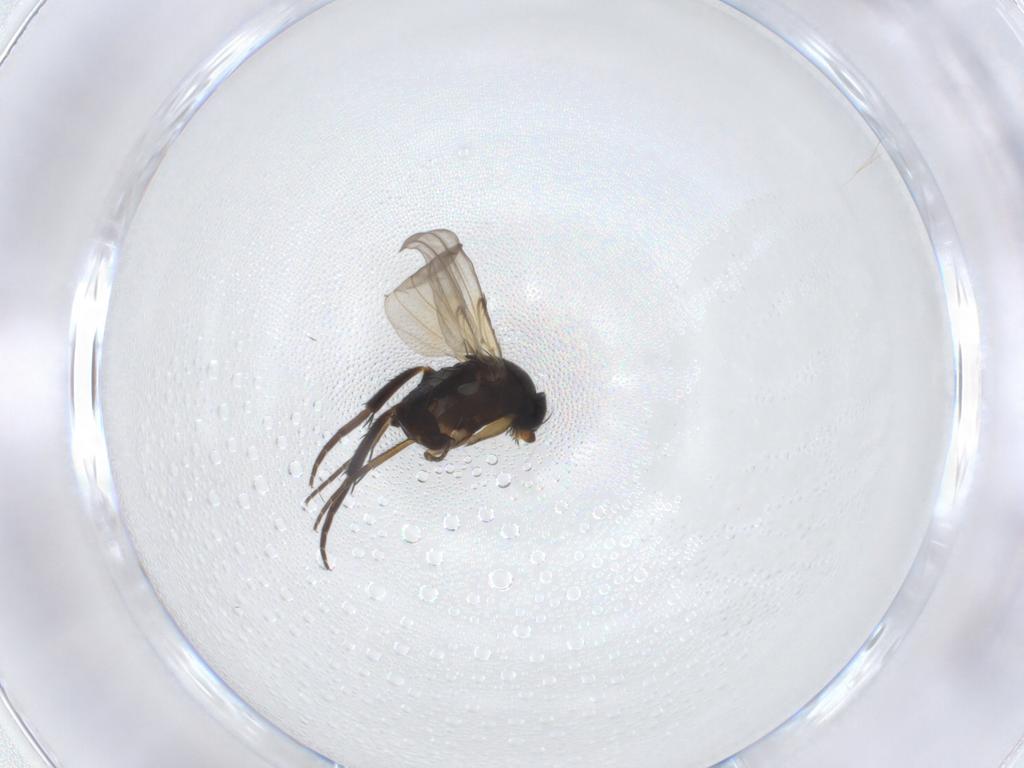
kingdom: Animalia
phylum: Arthropoda
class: Insecta
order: Diptera
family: Phoridae
